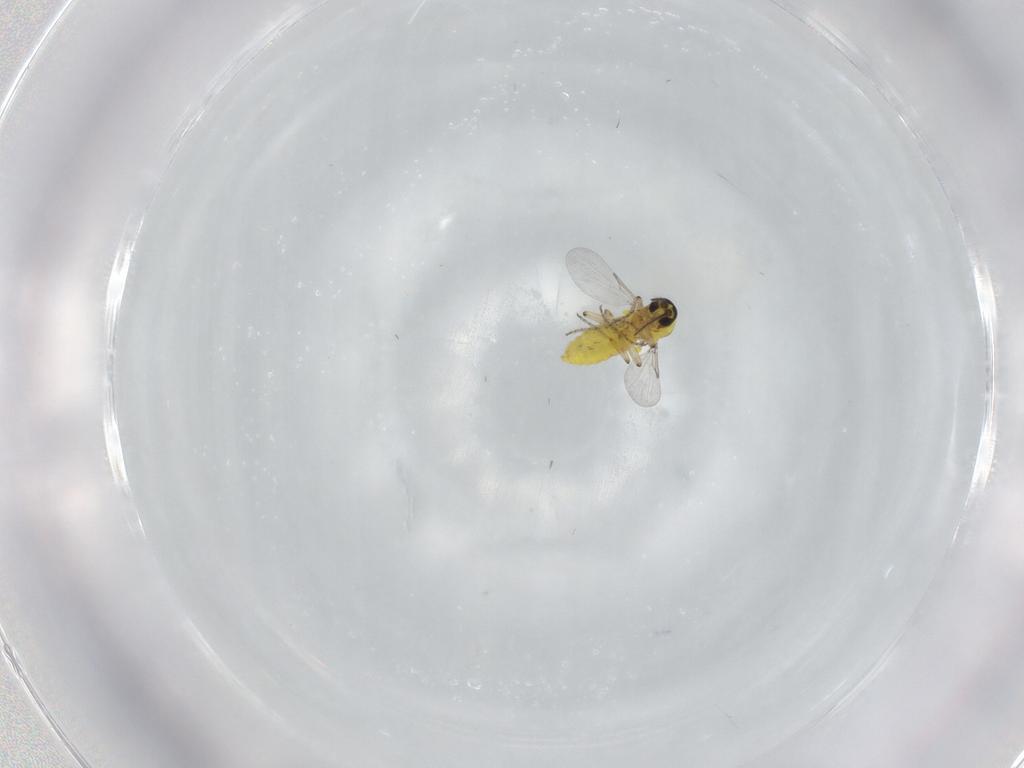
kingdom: Animalia
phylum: Arthropoda
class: Insecta
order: Diptera
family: Ceratopogonidae
